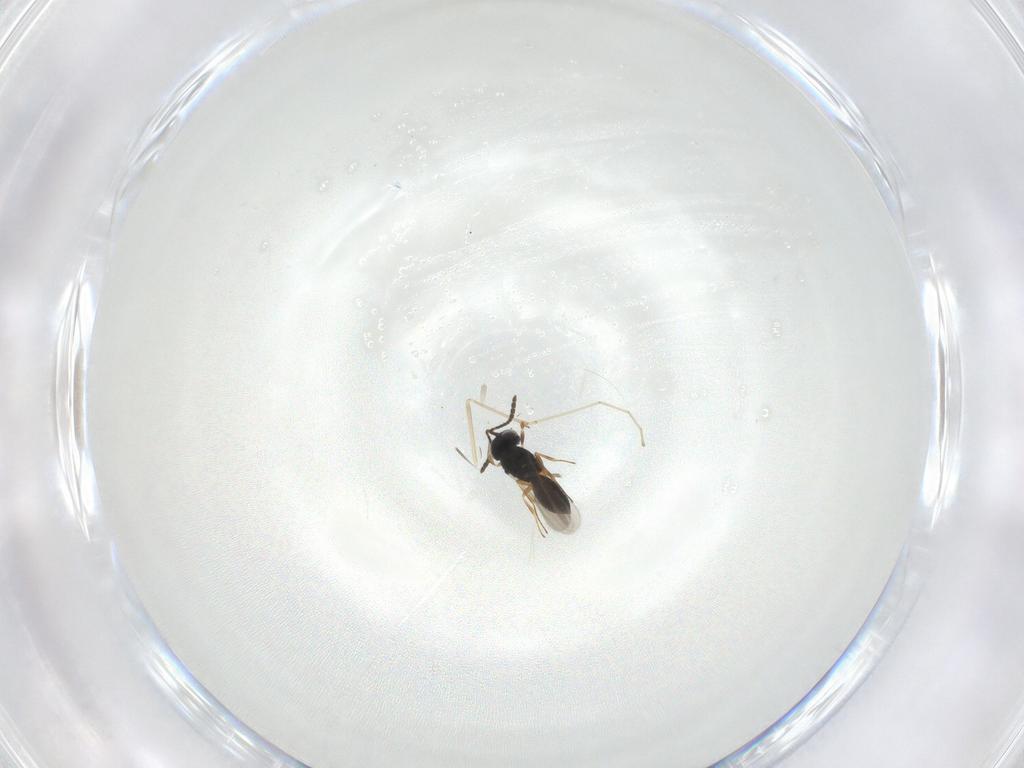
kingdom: Animalia
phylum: Arthropoda
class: Insecta
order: Hymenoptera
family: Scelionidae
